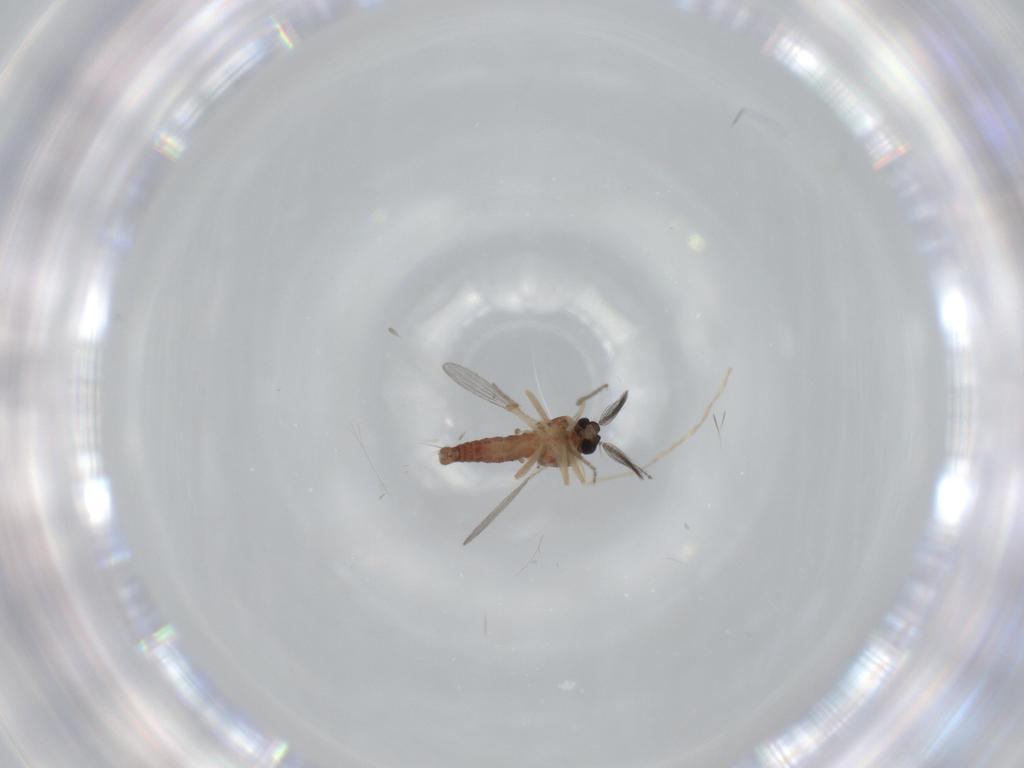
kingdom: Animalia
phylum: Arthropoda
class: Insecta
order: Diptera
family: Ceratopogonidae
